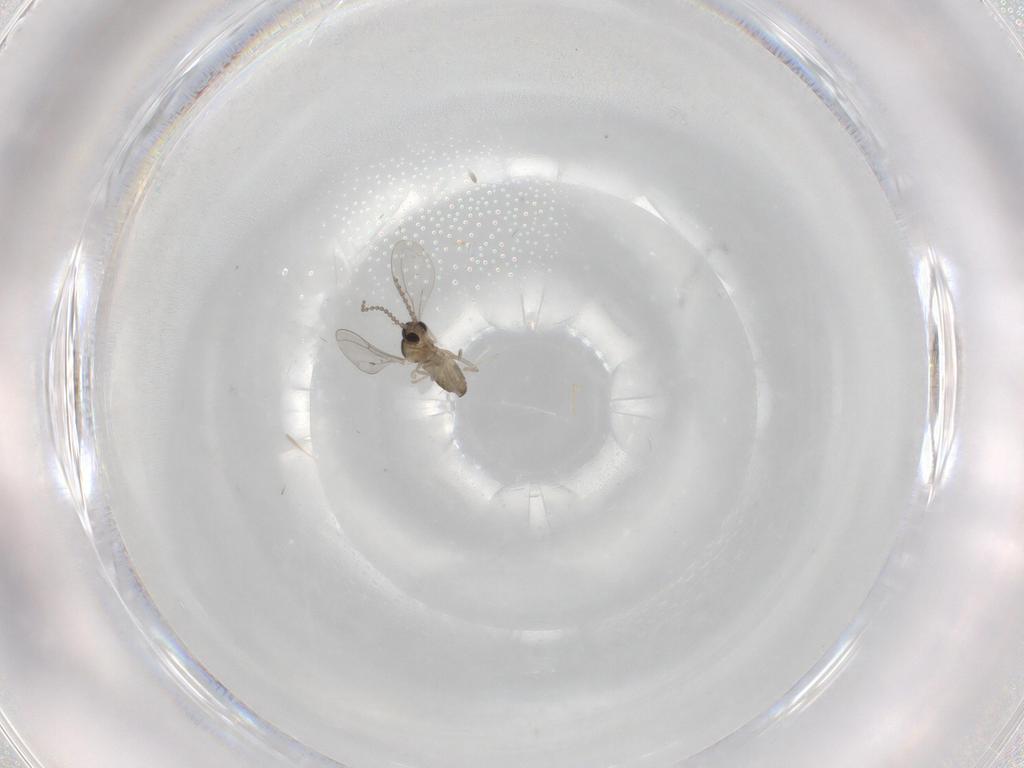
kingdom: Animalia
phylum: Arthropoda
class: Insecta
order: Diptera
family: Cecidomyiidae
